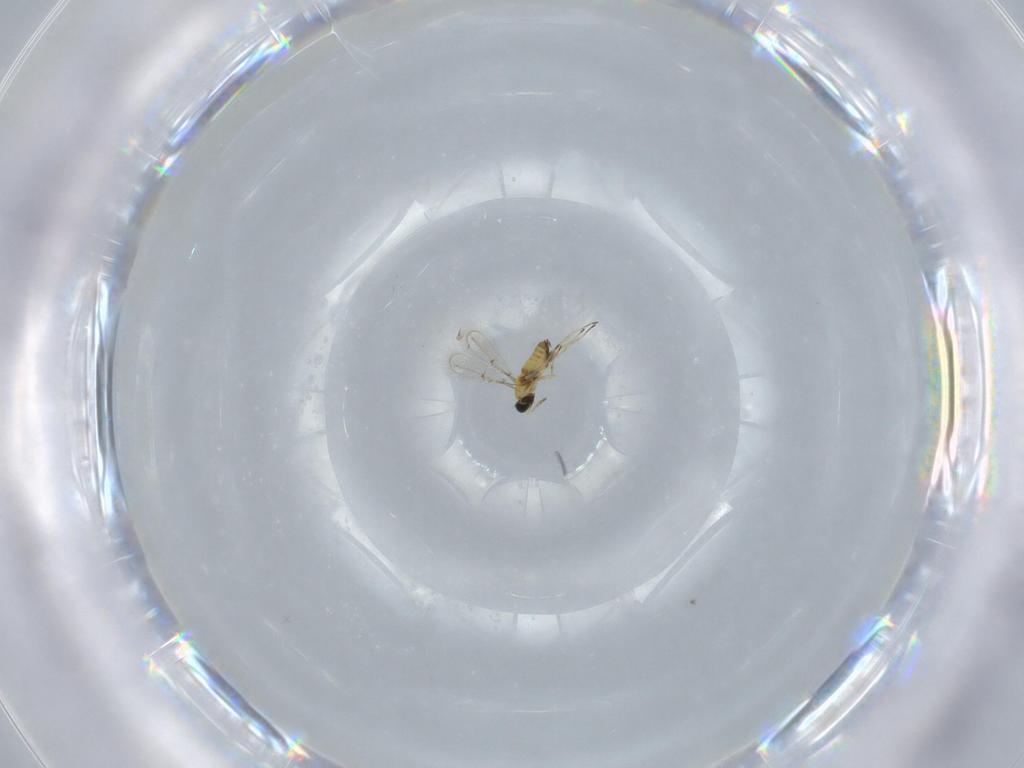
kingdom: Animalia
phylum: Arthropoda
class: Insecta
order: Hymenoptera
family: Trichogrammatidae
